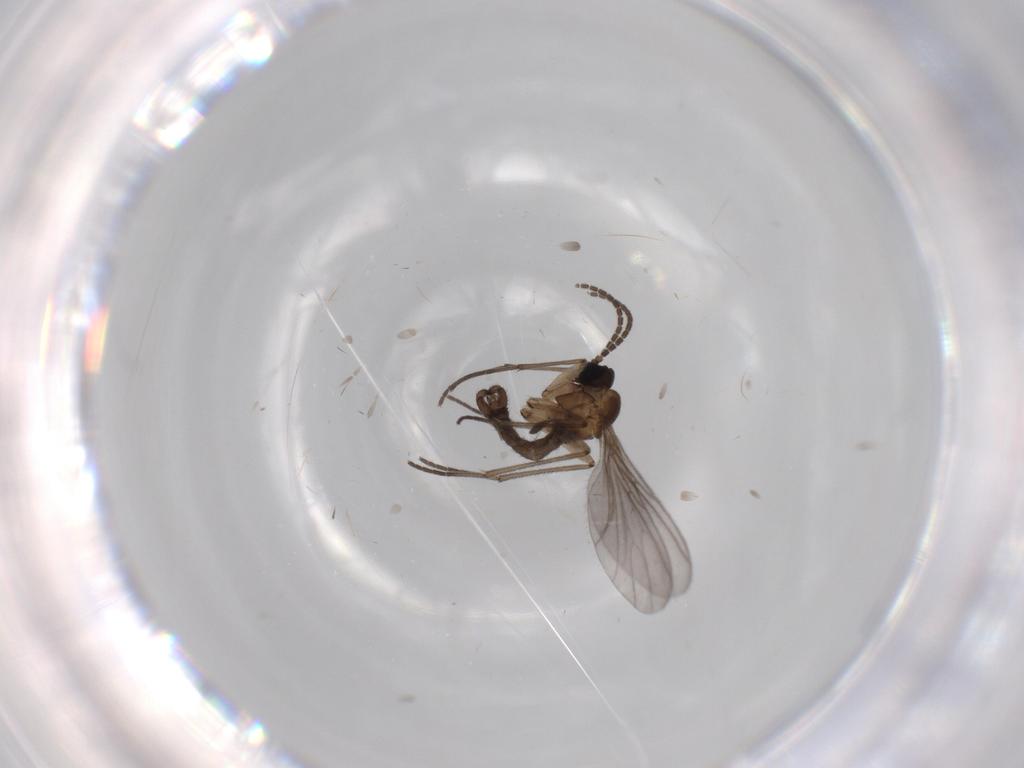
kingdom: Animalia
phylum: Arthropoda
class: Insecta
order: Diptera
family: Sciaridae
